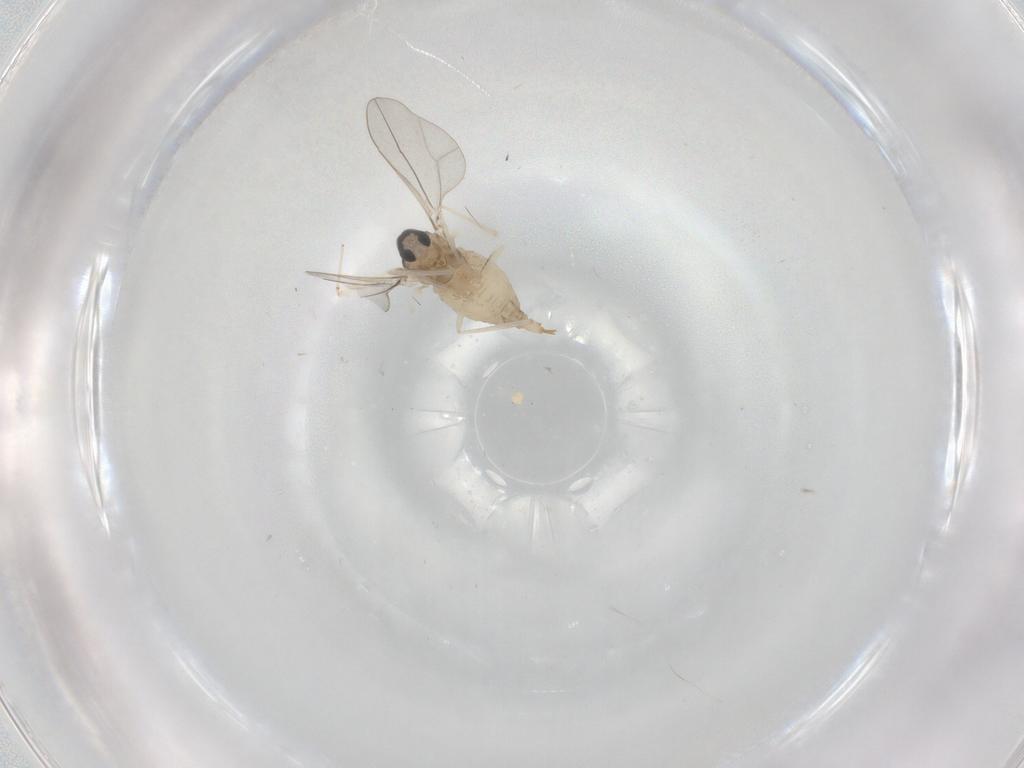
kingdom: Animalia
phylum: Arthropoda
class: Insecta
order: Diptera
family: Cecidomyiidae
